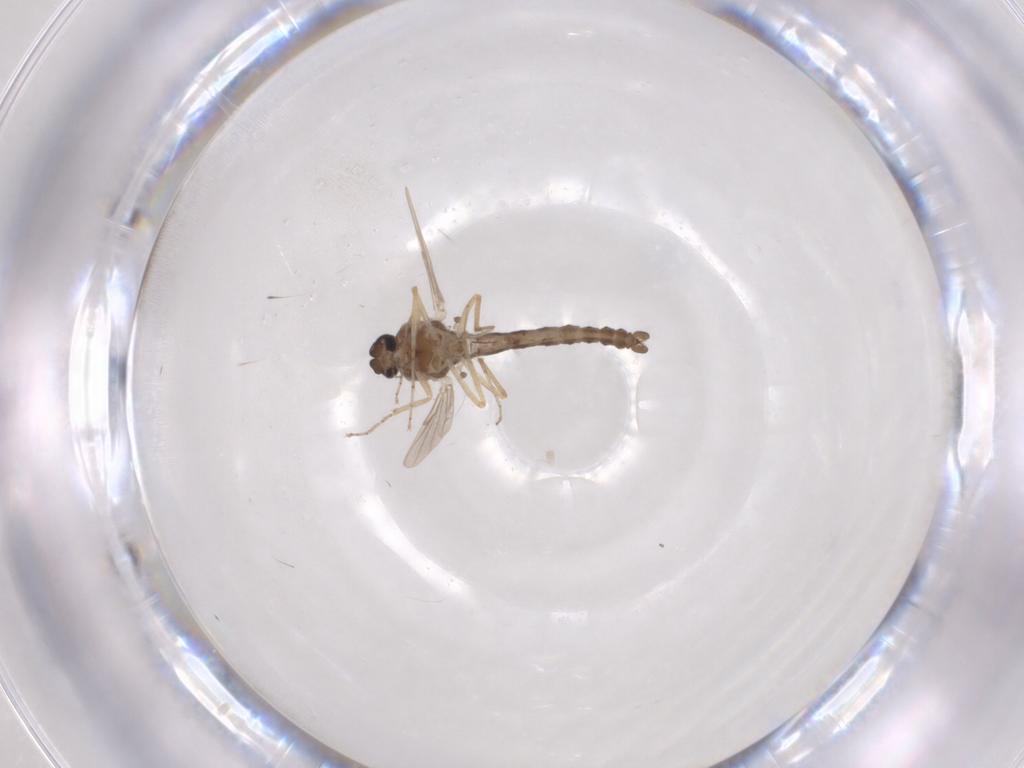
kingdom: Animalia
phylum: Arthropoda
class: Insecta
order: Diptera
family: Ceratopogonidae
